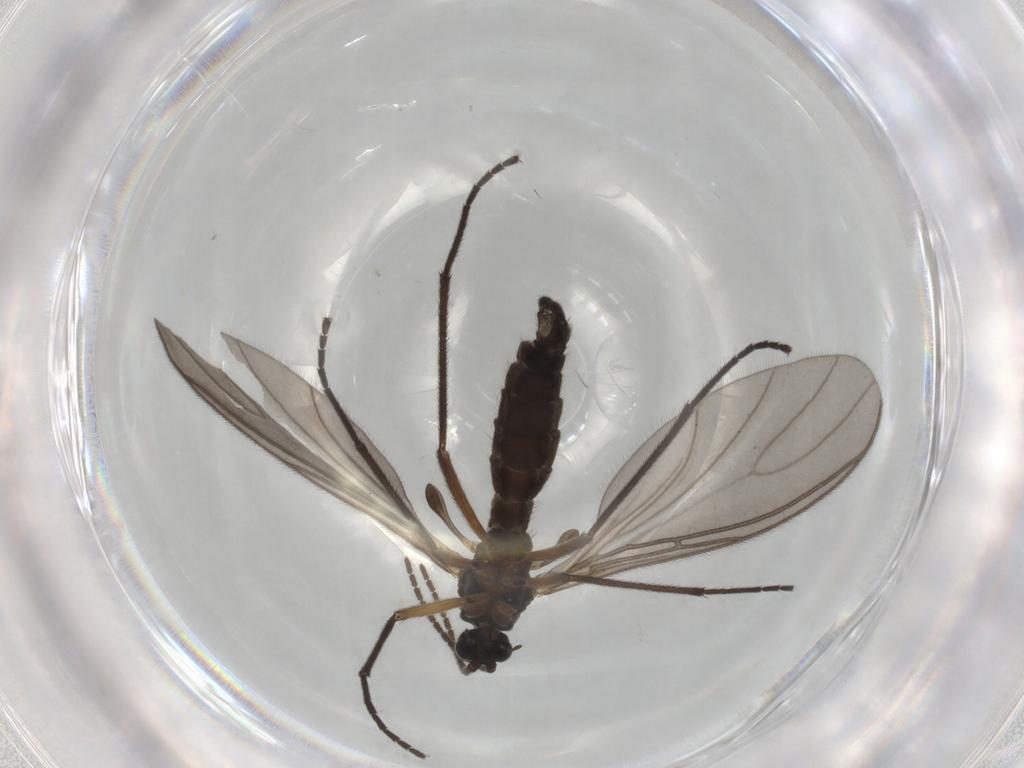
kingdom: Animalia
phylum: Arthropoda
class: Insecta
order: Diptera
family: Sciaridae
